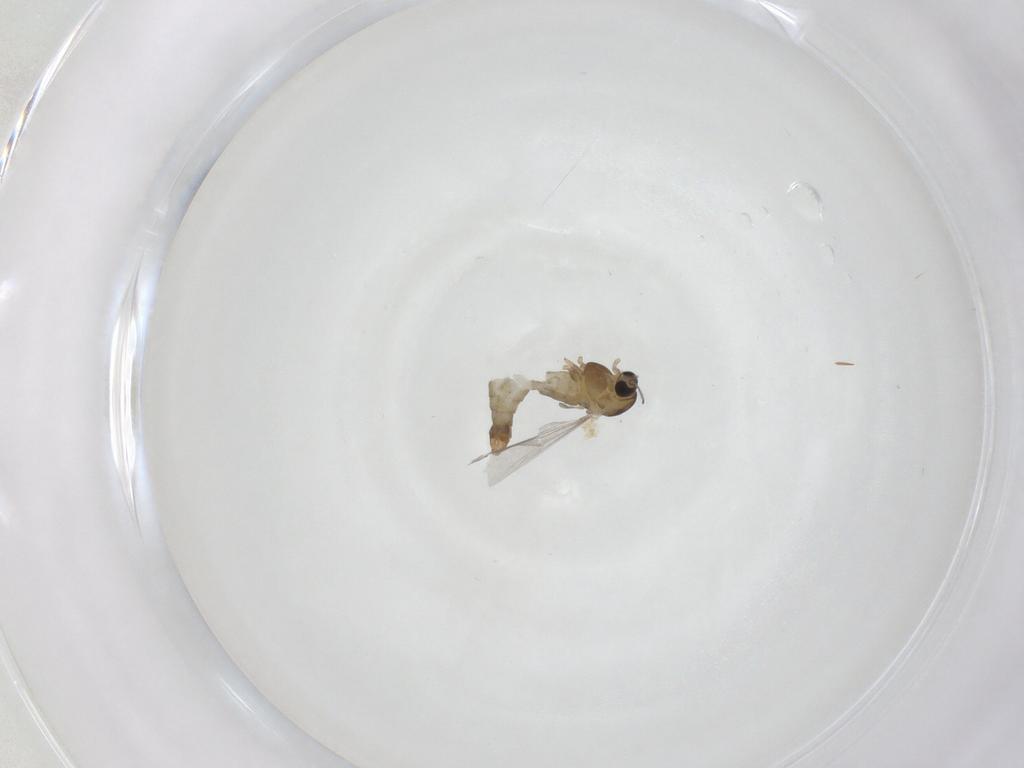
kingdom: Animalia
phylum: Arthropoda
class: Insecta
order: Diptera
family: Chironomidae
